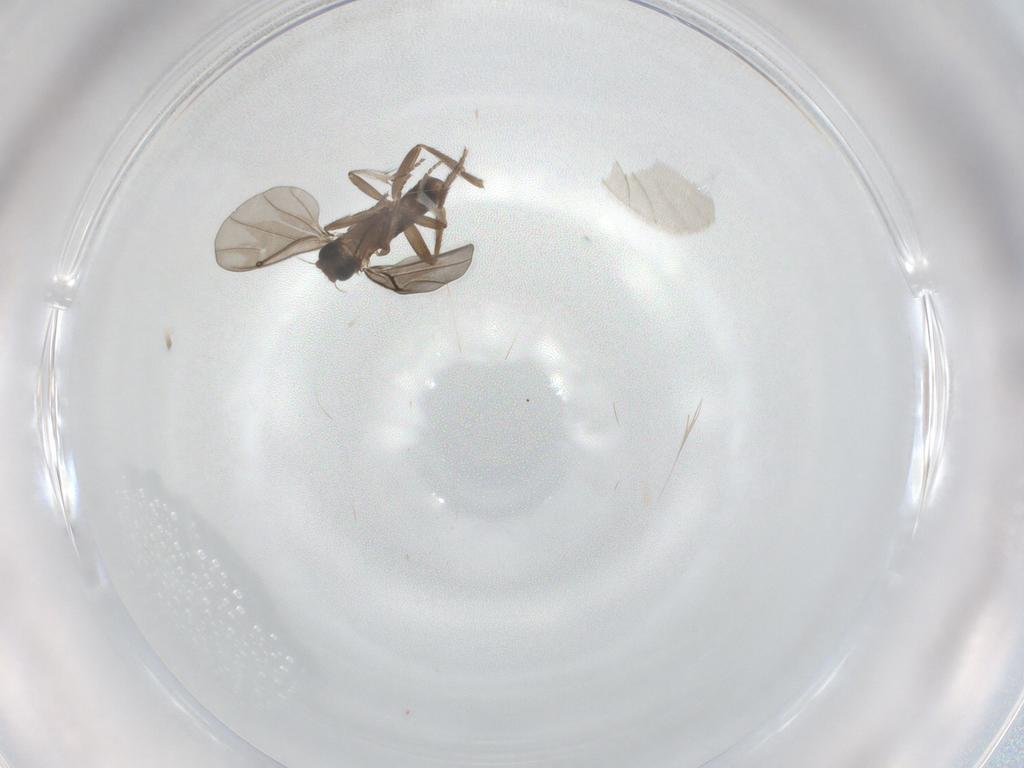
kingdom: Animalia
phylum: Arthropoda
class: Insecta
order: Diptera
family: Phoridae
